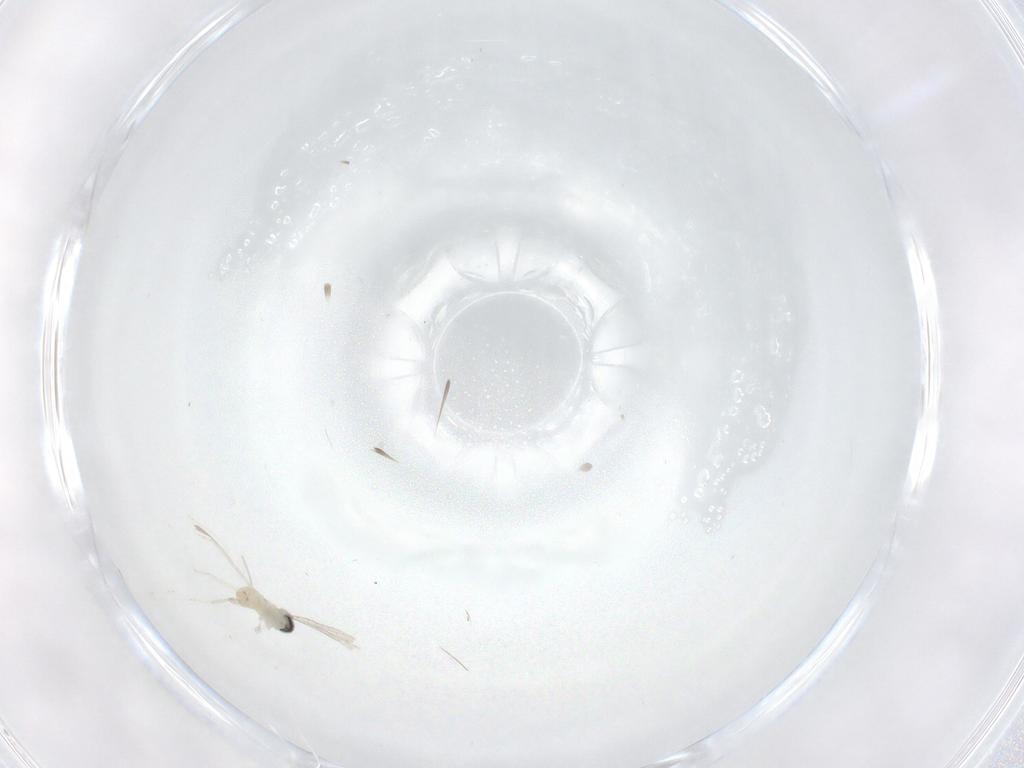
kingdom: Animalia
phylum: Arthropoda
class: Insecta
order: Diptera
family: Cecidomyiidae
